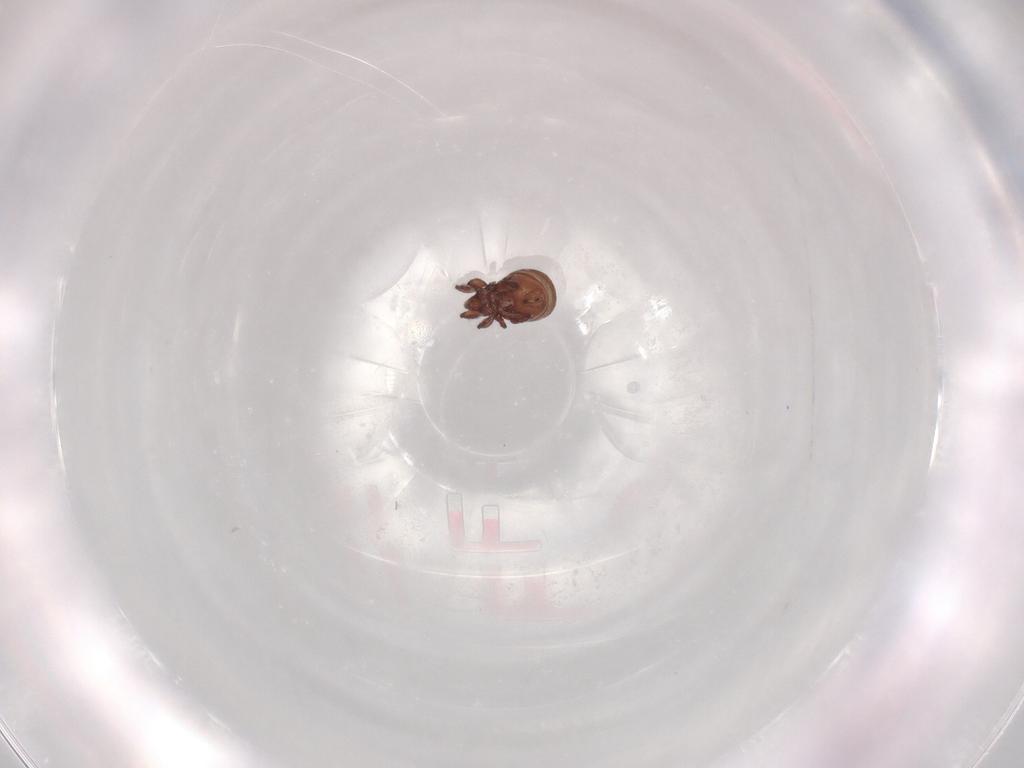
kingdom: Animalia
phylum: Arthropoda
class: Arachnida
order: Sarcoptiformes
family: Eremaeidae
